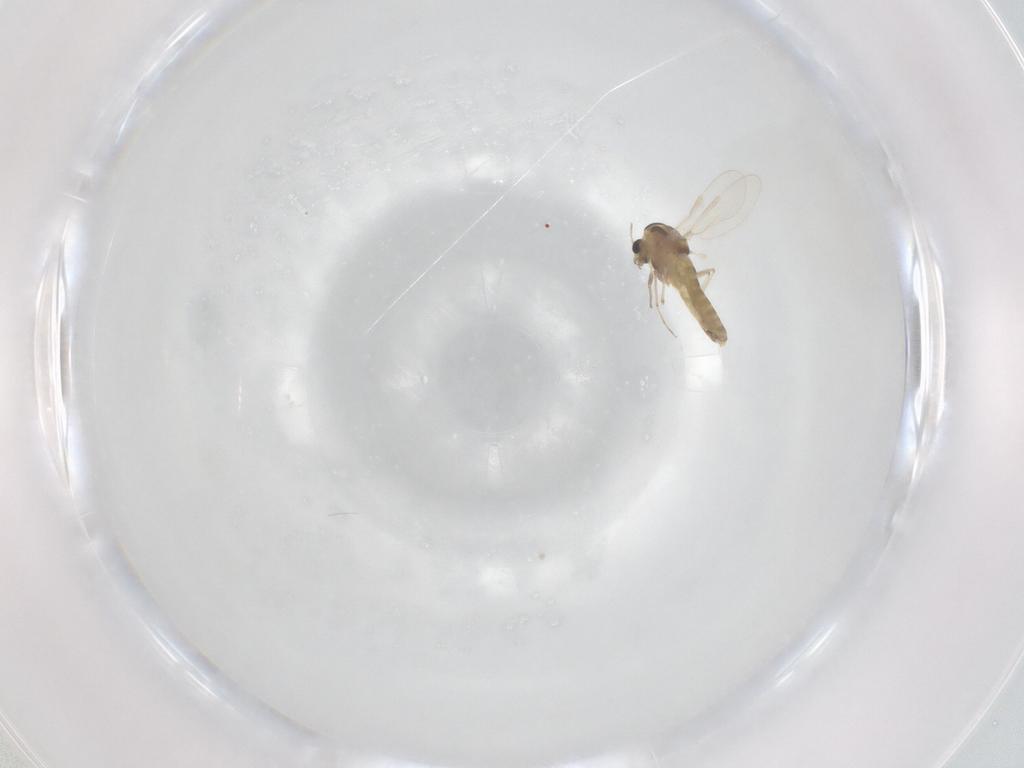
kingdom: Animalia
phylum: Arthropoda
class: Insecta
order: Diptera
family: Chironomidae
